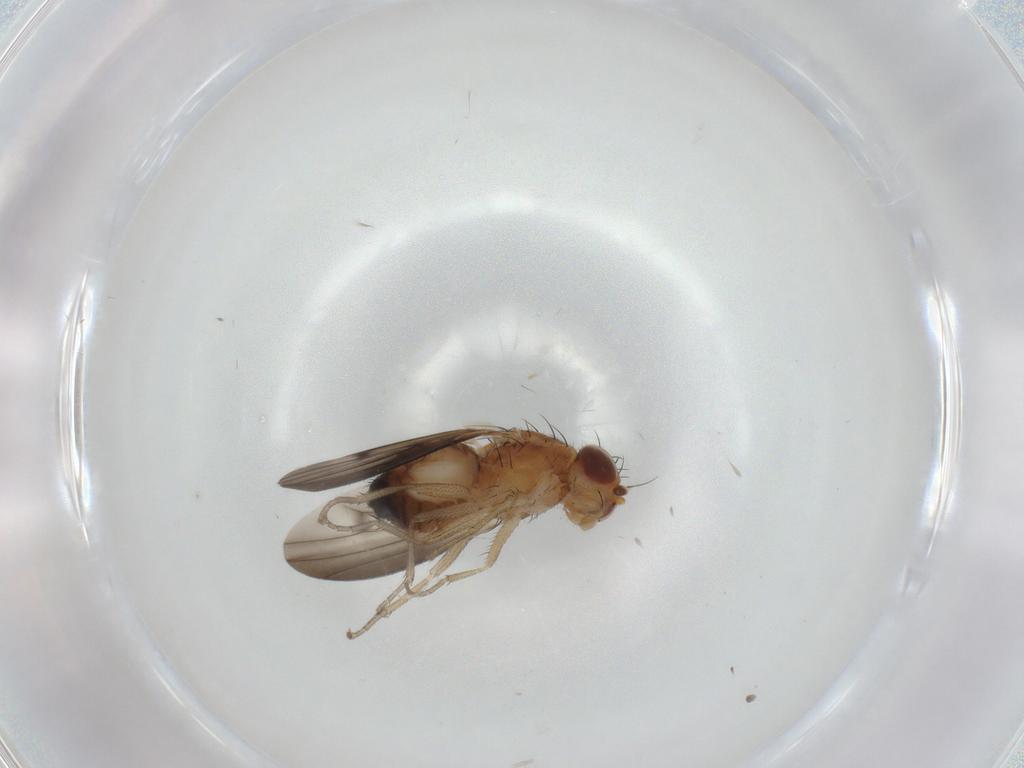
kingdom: Animalia
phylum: Arthropoda
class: Insecta
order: Diptera
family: Heleomyzidae
